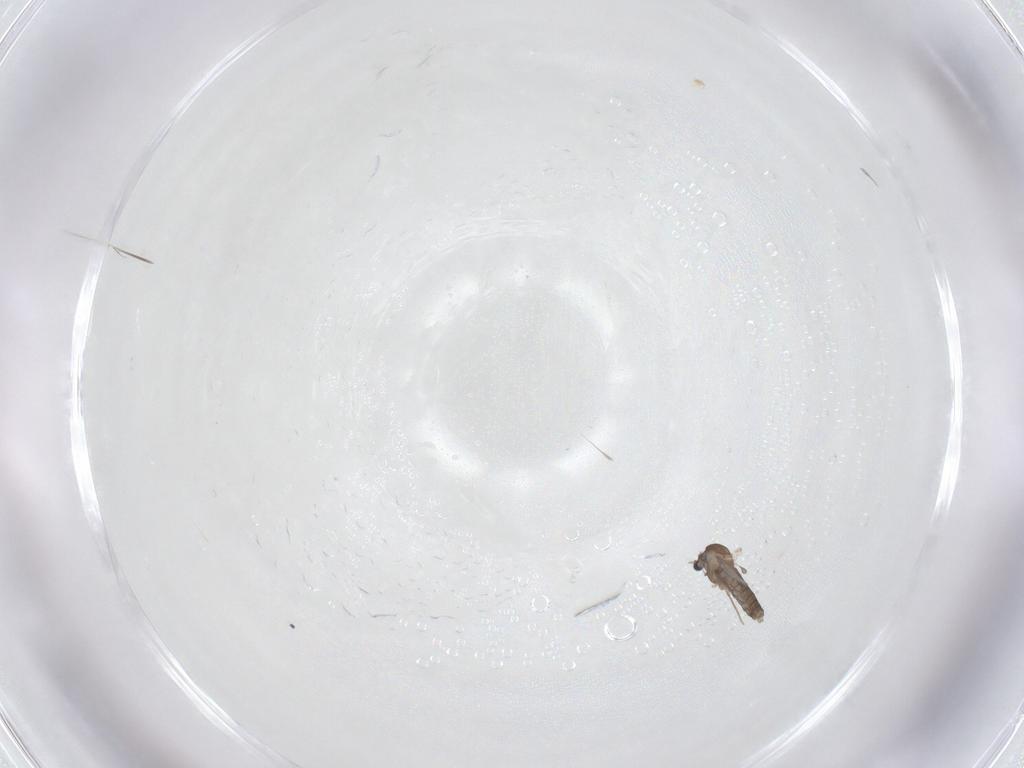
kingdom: Animalia
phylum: Arthropoda
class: Insecta
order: Diptera
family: Chironomidae
